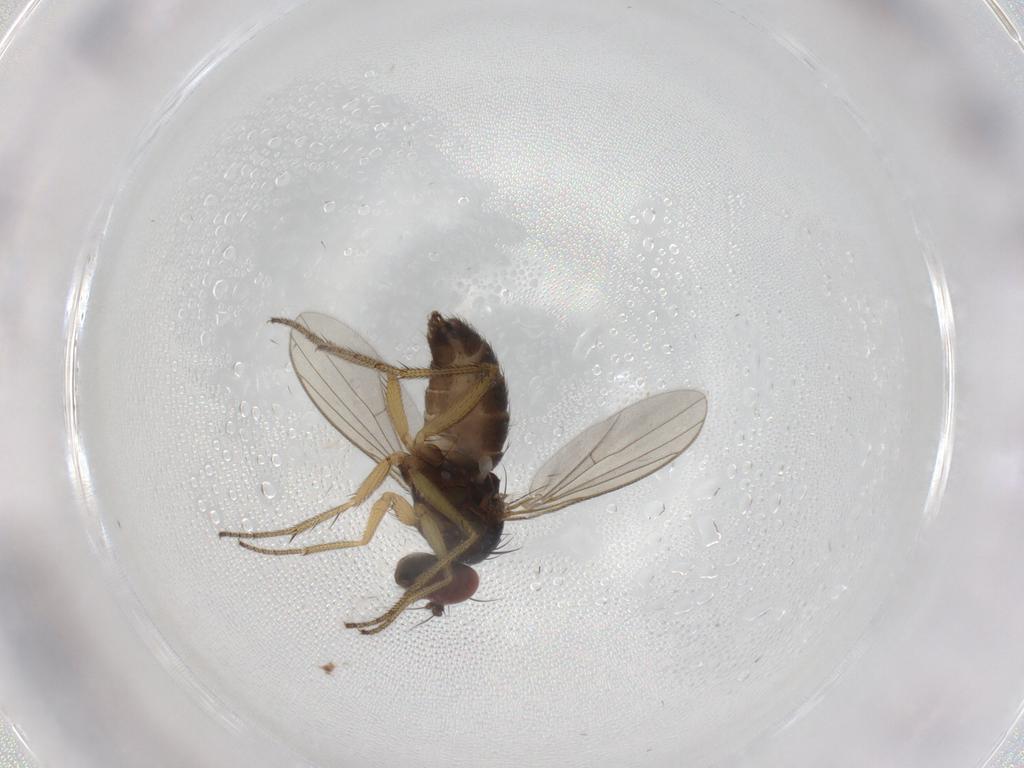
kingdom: Animalia
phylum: Arthropoda
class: Insecta
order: Diptera
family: Dolichopodidae
